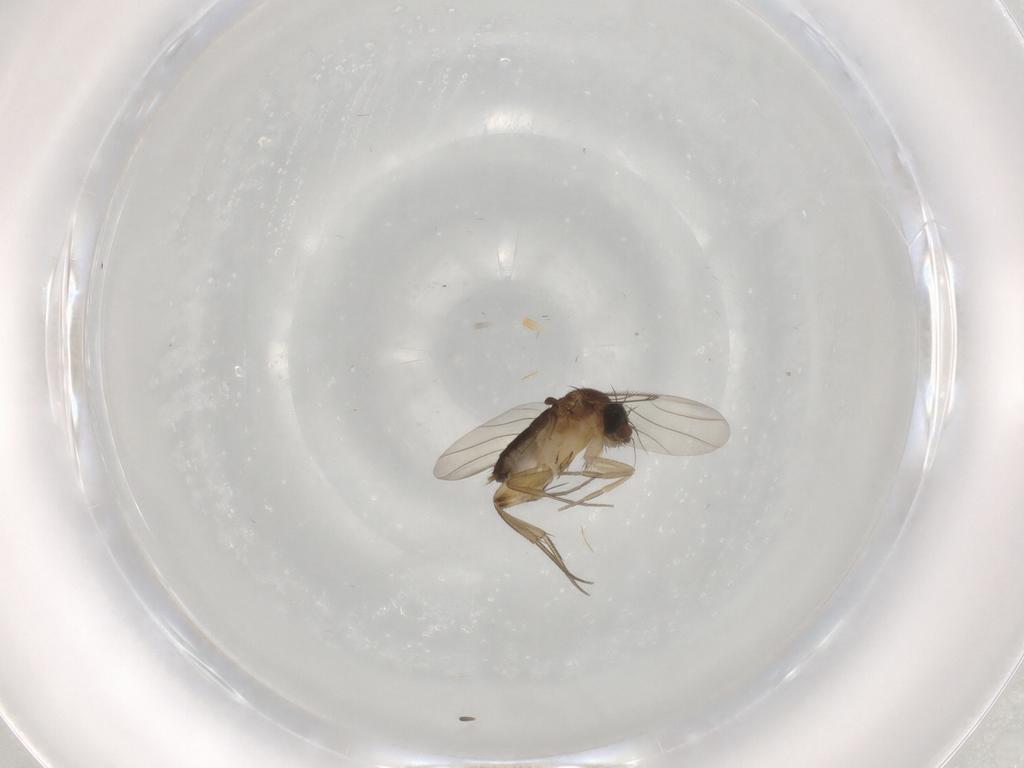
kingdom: Animalia
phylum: Arthropoda
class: Insecta
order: Diptera
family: Phoridae
